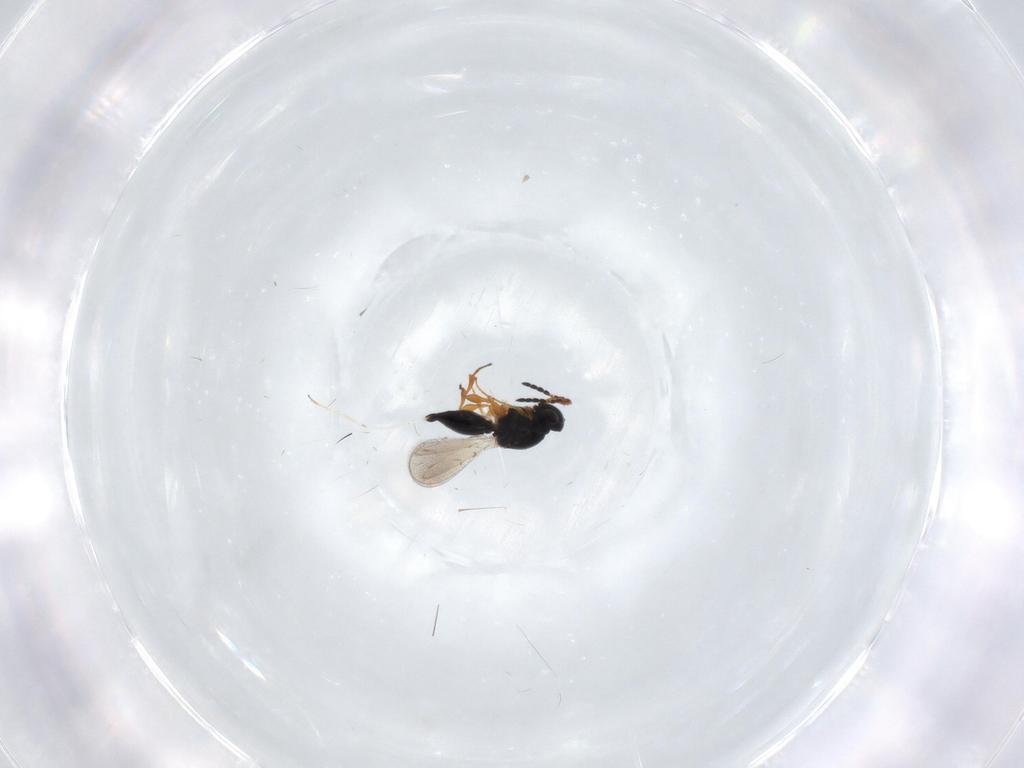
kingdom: Animalia
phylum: Arthropoda
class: Insecta
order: Hymenoptera
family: Platygastridae
